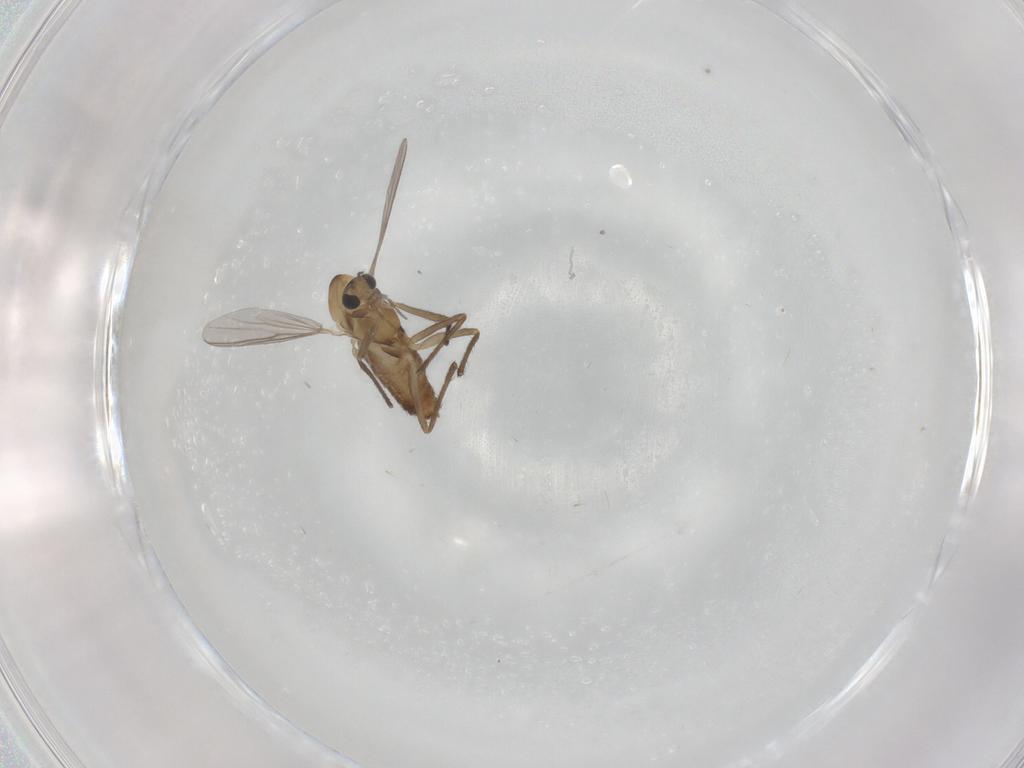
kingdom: Animalia
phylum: Arthropoda
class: Insecta
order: Diptera
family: Chironomidae
